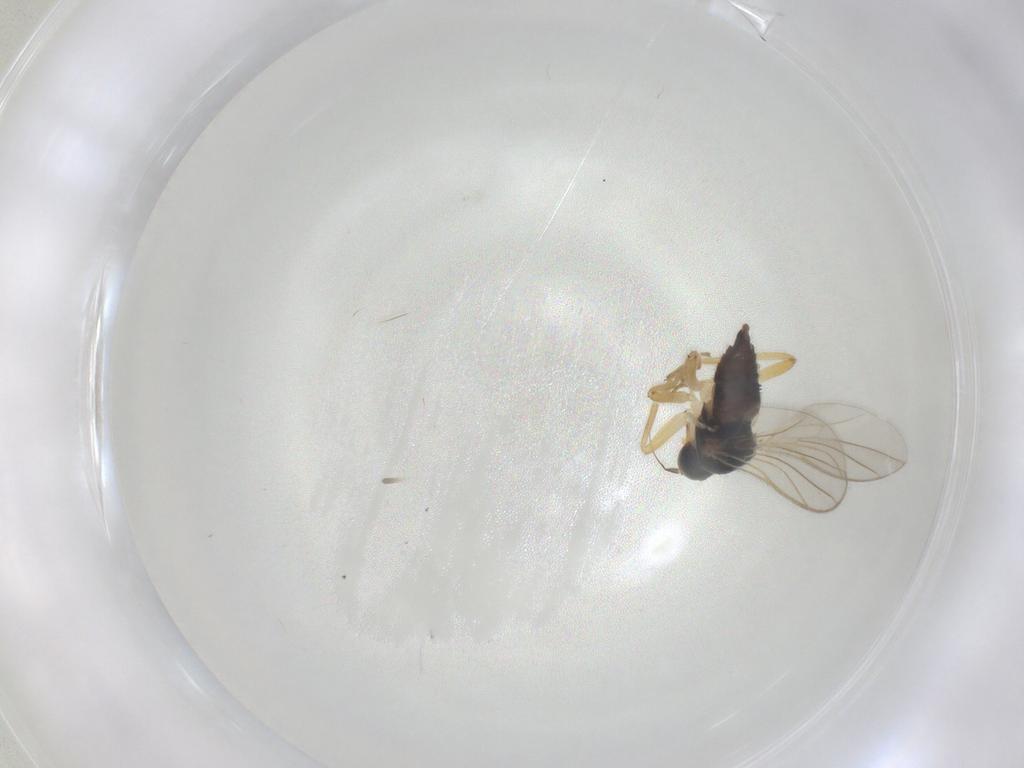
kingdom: Animalia
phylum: Arthropoda
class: Insecta
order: Diptera
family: Hybotidae
